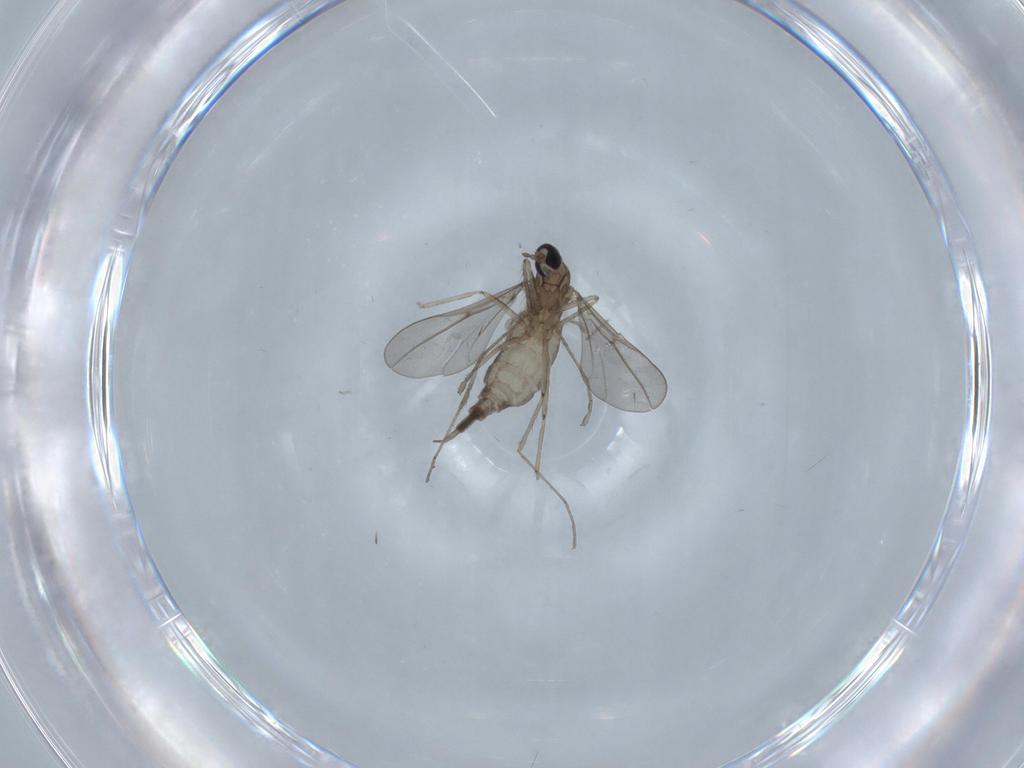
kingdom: Animalia
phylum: Arthropoda
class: Insecta
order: Diptera
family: Cecidomyiidae
